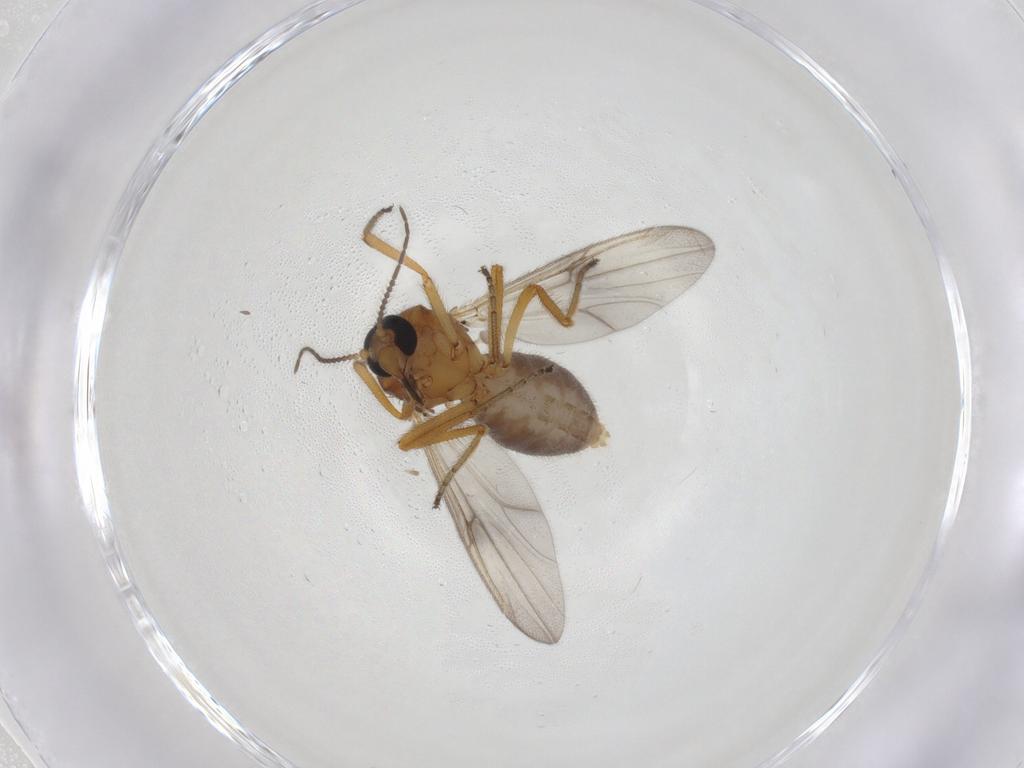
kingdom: Animalia
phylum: Arthropoda
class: Insecta
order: Diptera
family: Ceratopogonidae
